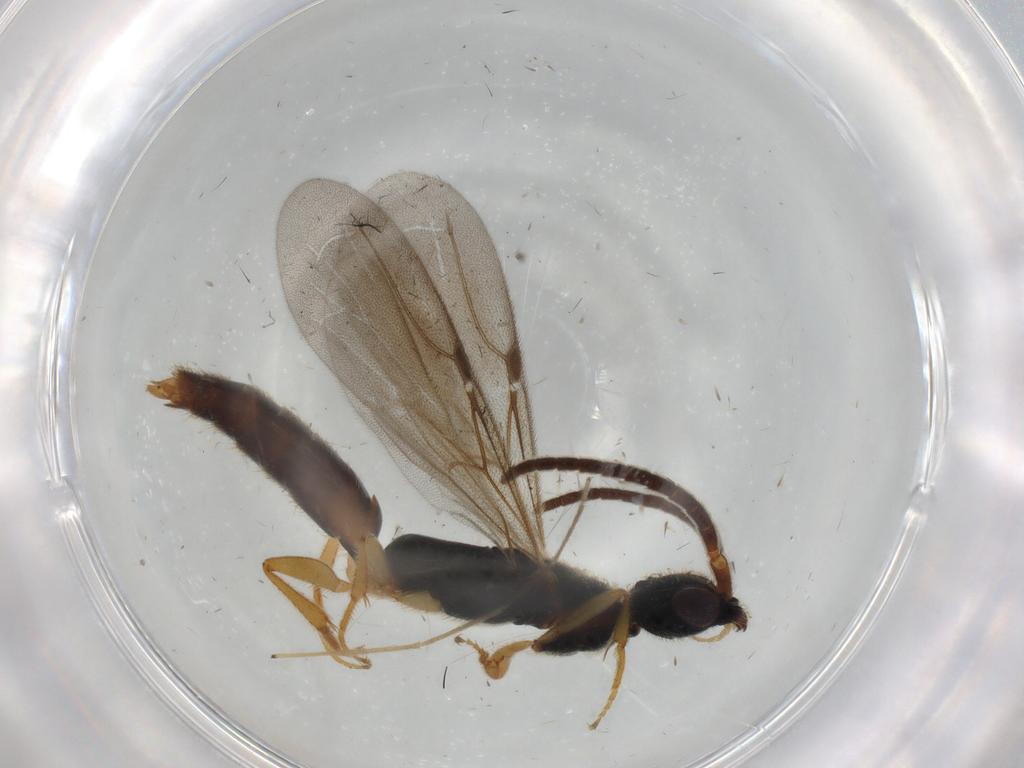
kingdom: Animalia
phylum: Arthropoda
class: Insecta
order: Hymenoptera
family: Bethylidae
